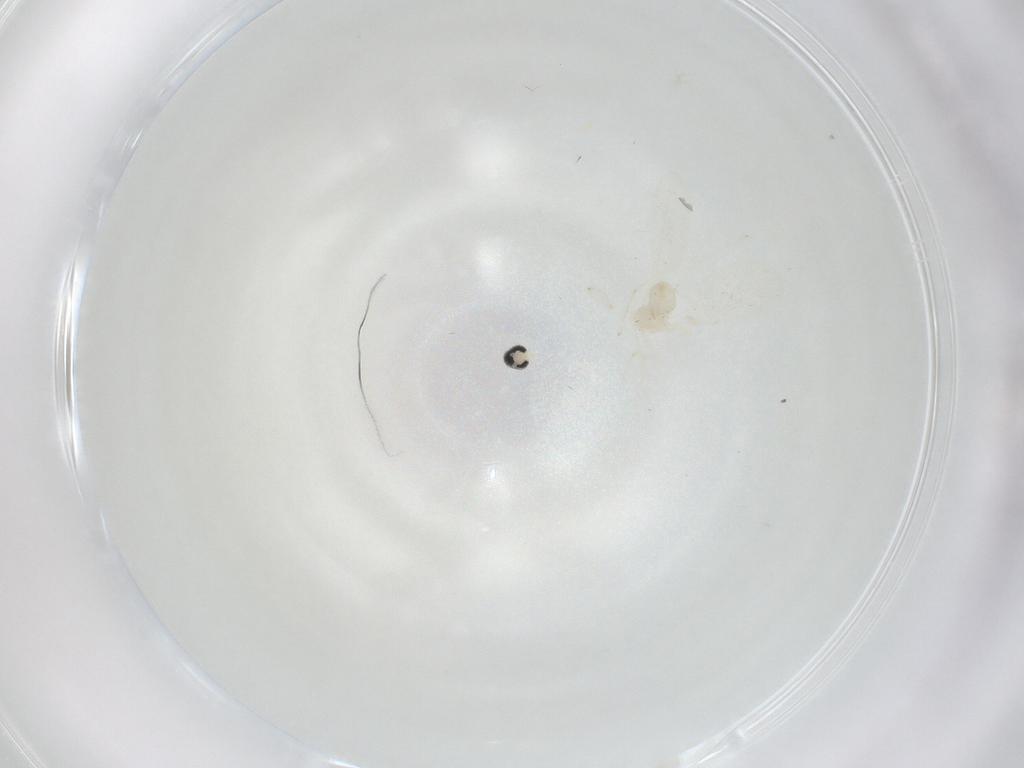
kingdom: Animalia
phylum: Arthropoda
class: Insecta
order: Diptera
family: Cecidomyiidae
